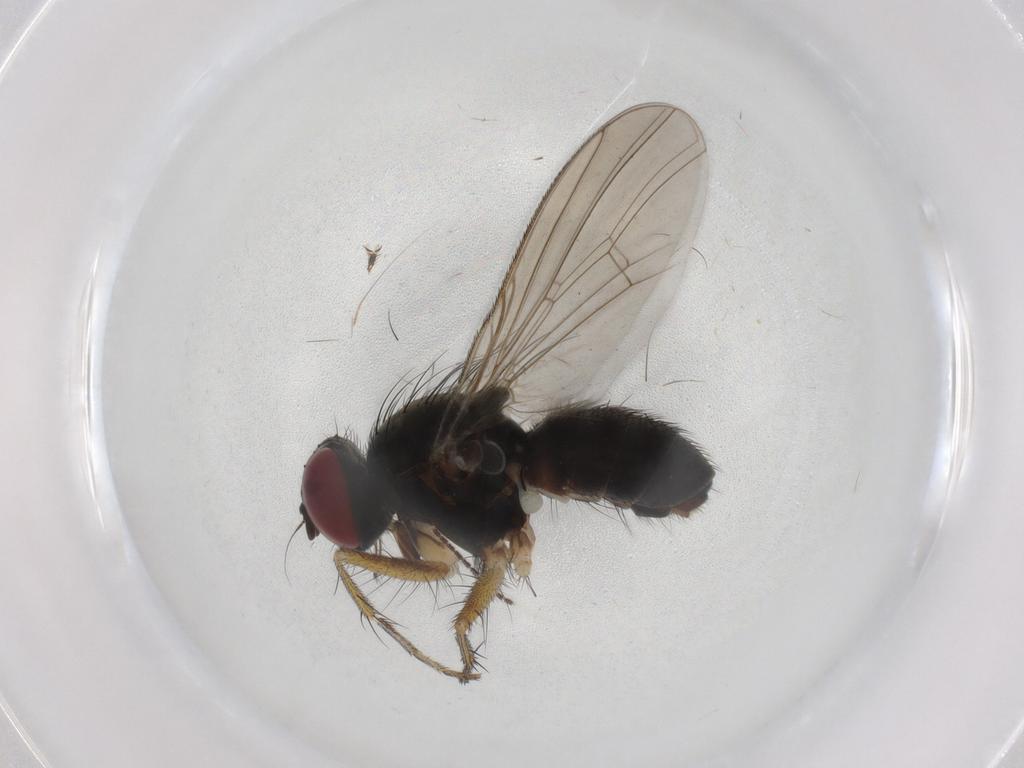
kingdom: Animalia
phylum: Arthropoda
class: Insecta
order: Diptera
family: Muscidae
